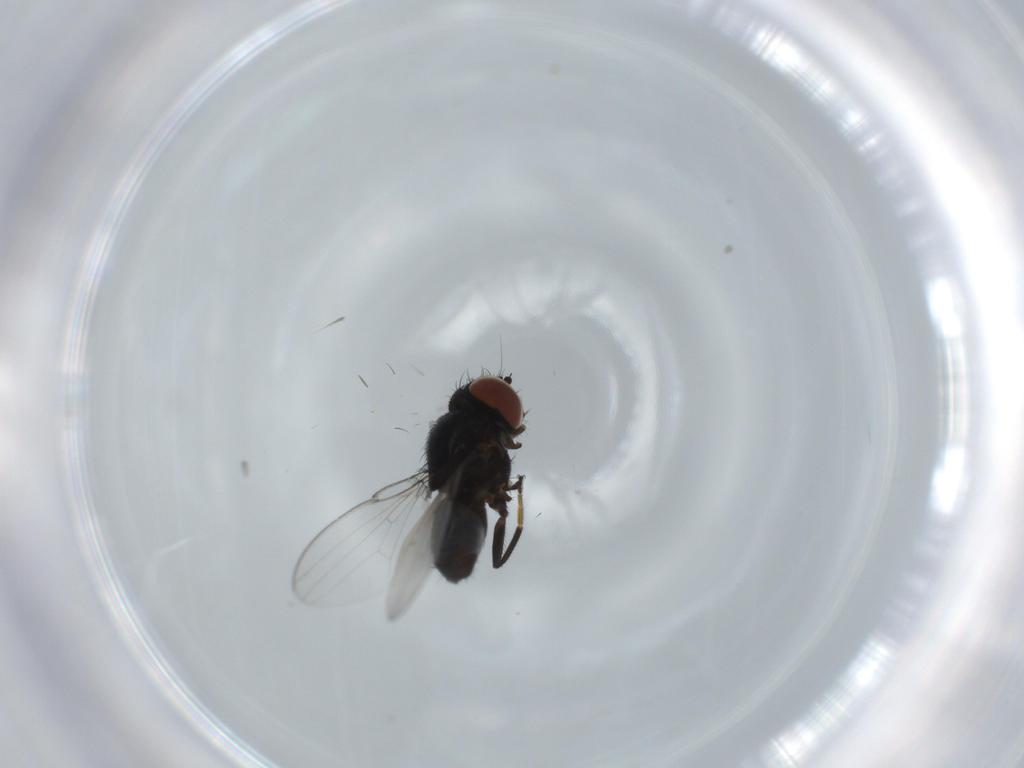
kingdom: Animalia
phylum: Arthropoda
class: Insecta
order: Diptera
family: Milichiidae
